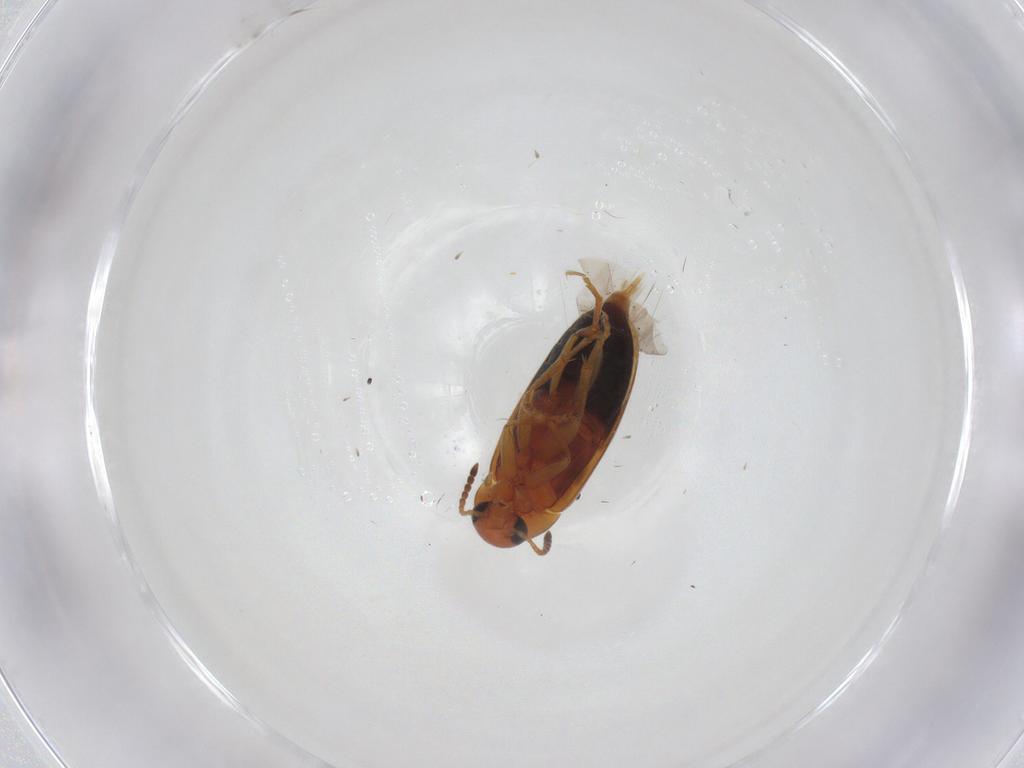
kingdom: Animalia
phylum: Arthropoda
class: Insecta
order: Coleoptera
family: Scraptiidae
